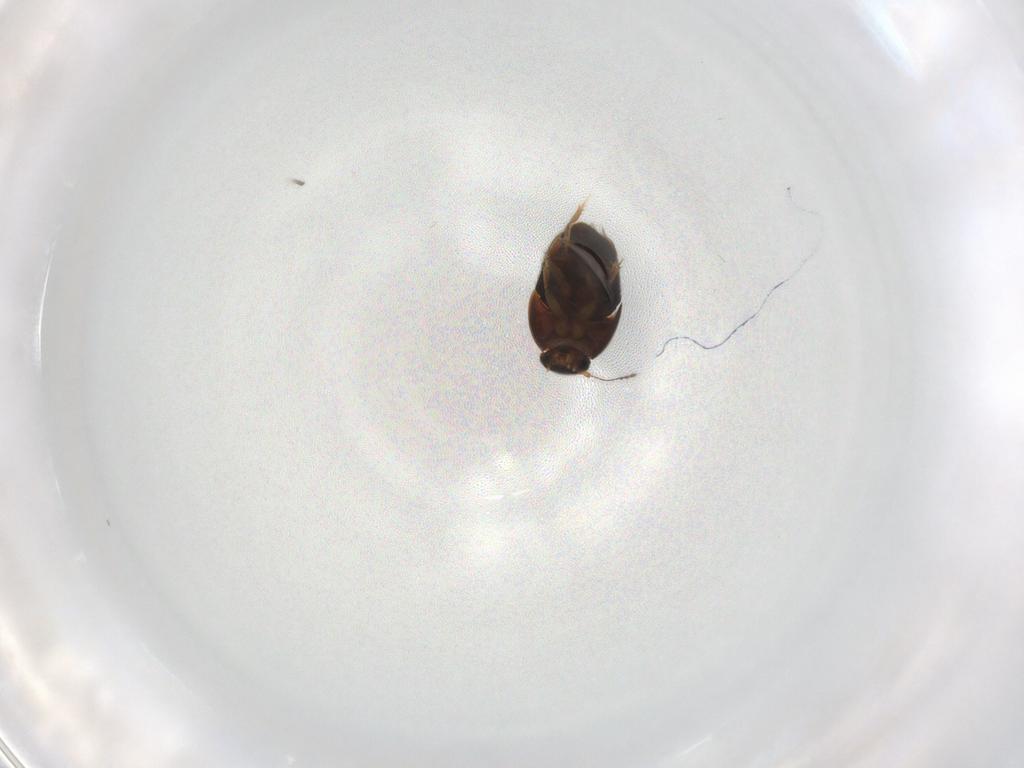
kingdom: Animalia
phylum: Arthropoda
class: Insecta
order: Coleoptera
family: Lycidae
